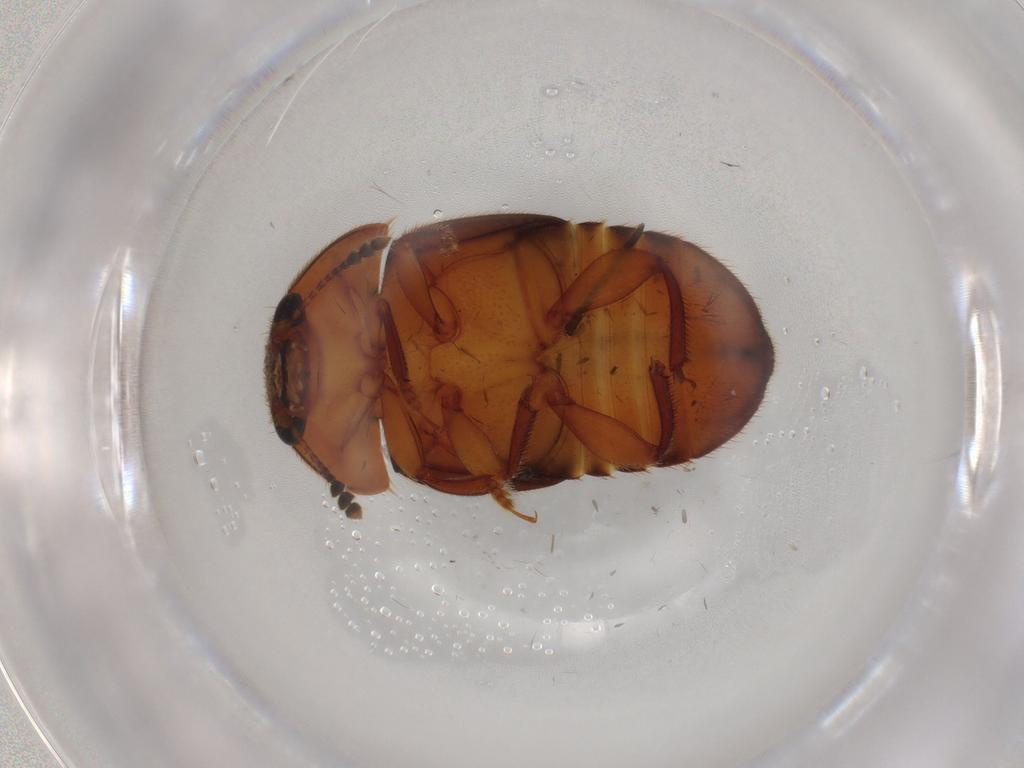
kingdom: Animalia
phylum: Arthropoda
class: Insecta
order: Coleoptera
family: Nitidulidae
